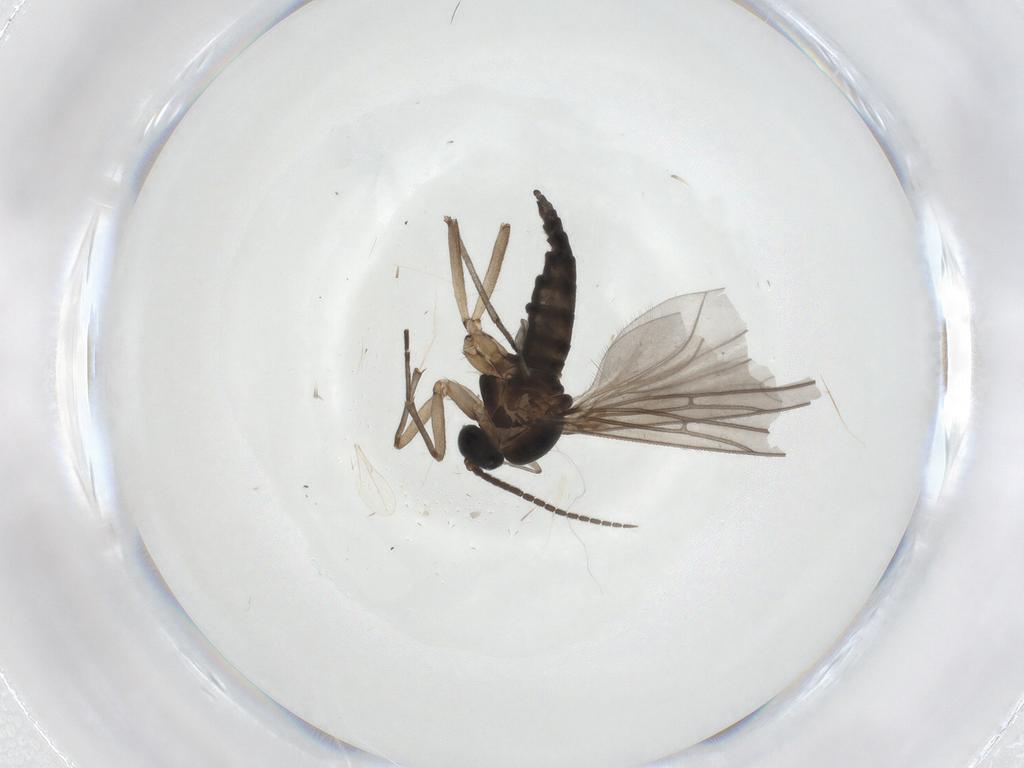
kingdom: Animalia
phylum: Arthropoda
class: Insecta
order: Diptera
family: Sciaridae
